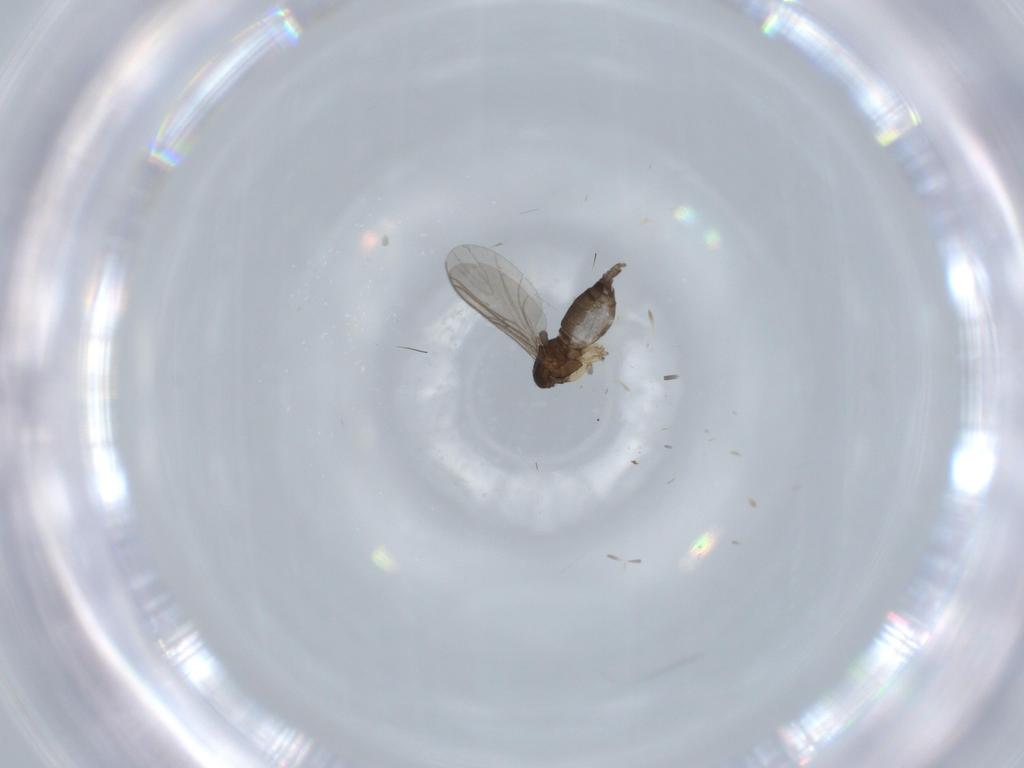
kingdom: Animalia
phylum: Arthropoda
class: Insecta
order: Diptera
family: Sciaridae
